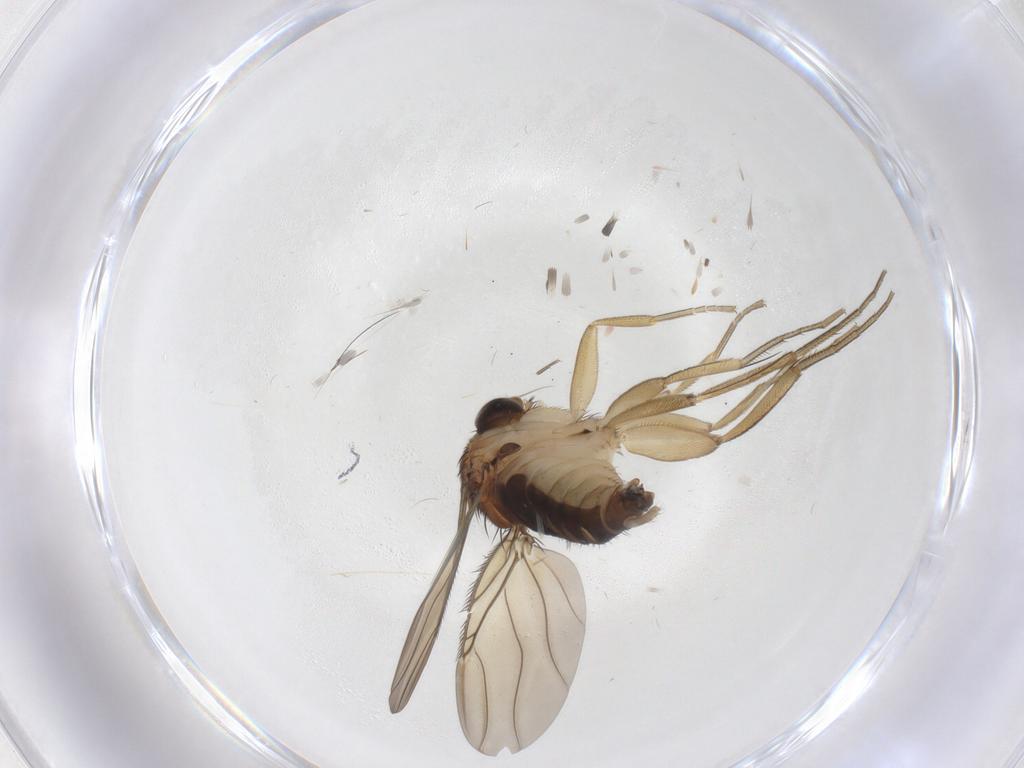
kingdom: Animalia
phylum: Arthropoda
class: Insecta
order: Diptera
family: Phoridae
